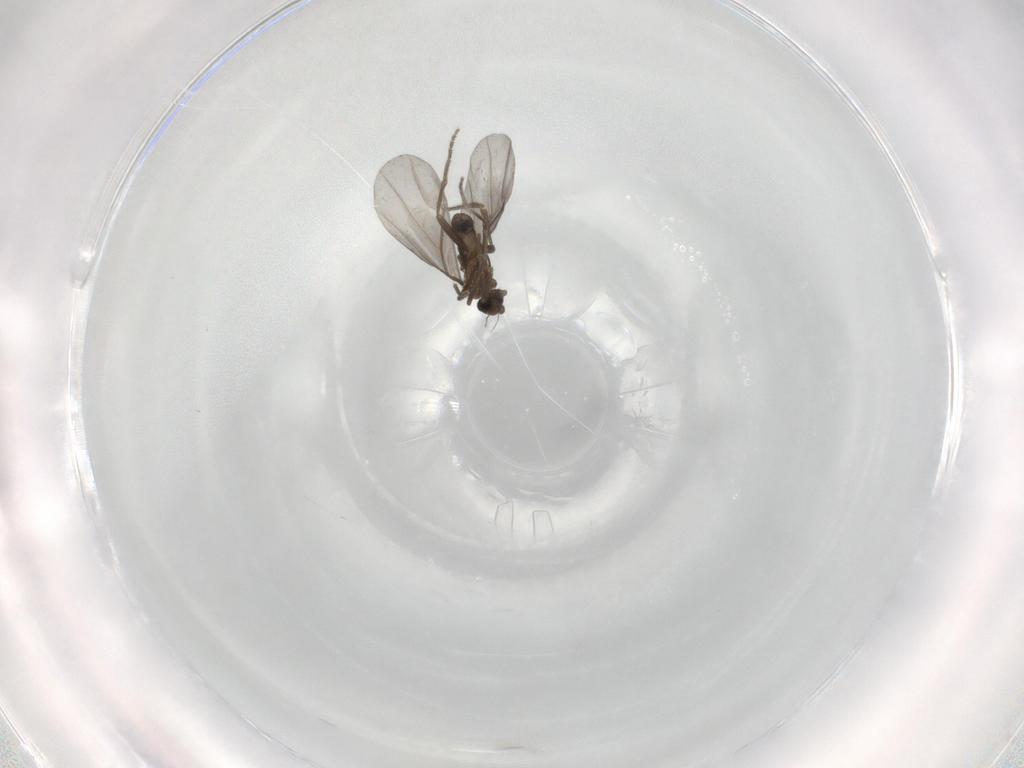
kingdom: Animalia
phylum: Arthropoda
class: Insecta
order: Diptera
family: Phoridae
